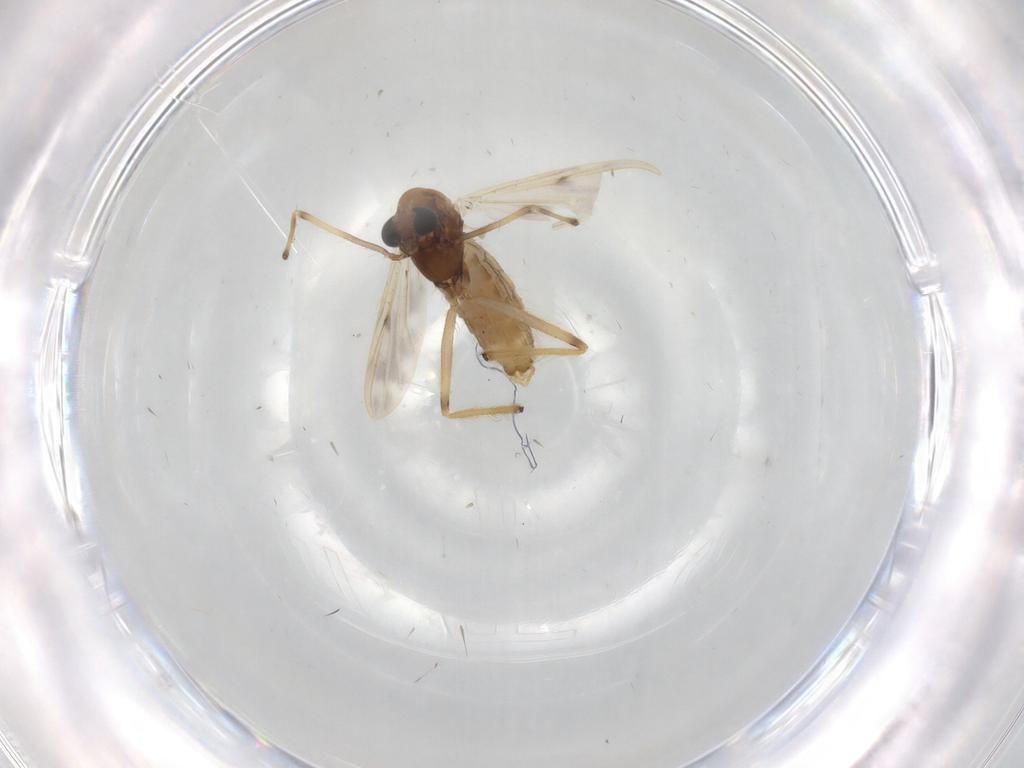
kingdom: Animalia
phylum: Arthropoda
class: Insecta
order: Diptera
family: Chironomidae
